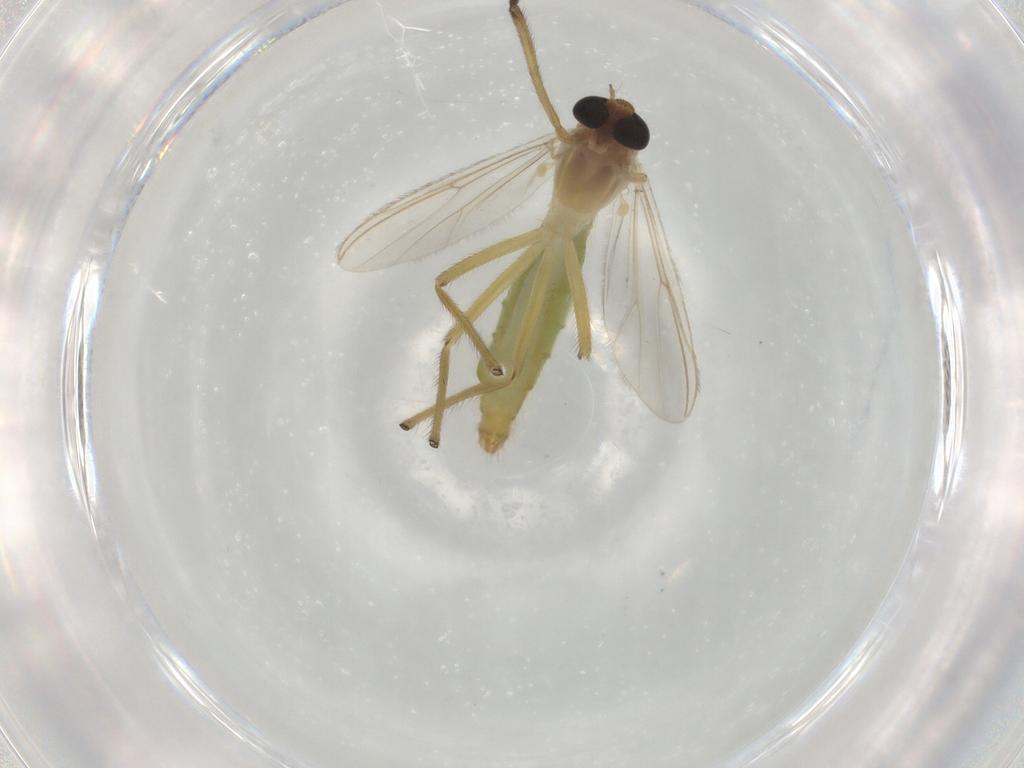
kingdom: Animalia
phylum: Arthropoda
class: Insecta
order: Diptera
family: Chironomidae
